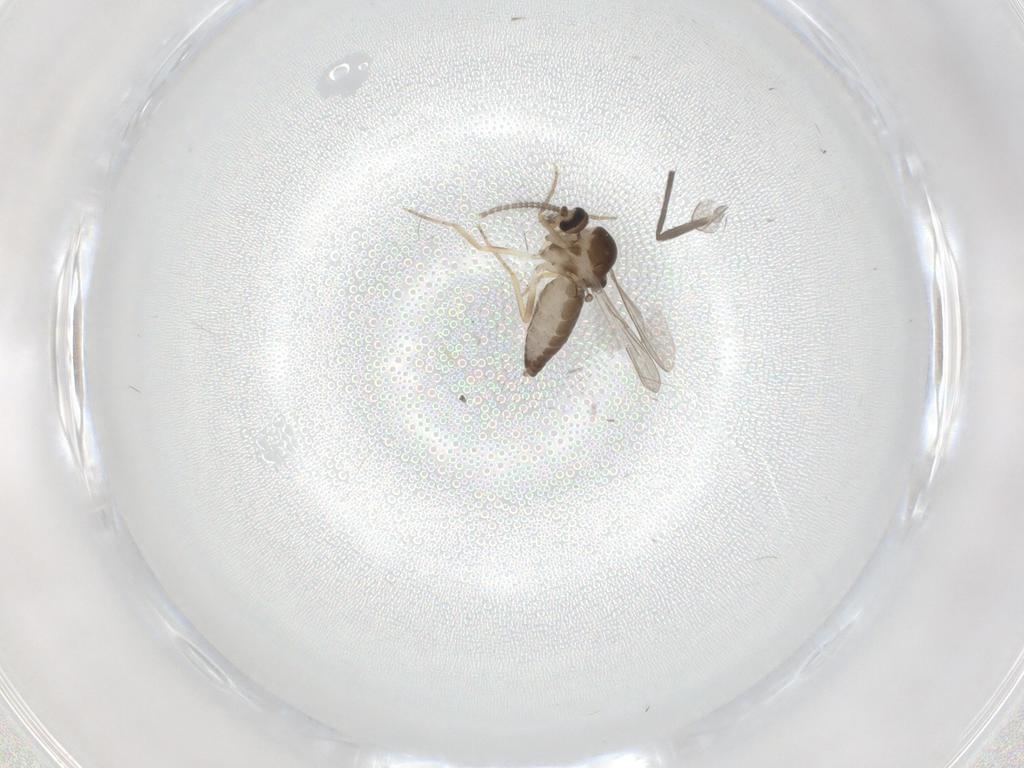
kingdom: Animalia
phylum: Arthropoda
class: Insecta
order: Diptera
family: Ceratopogonidae
